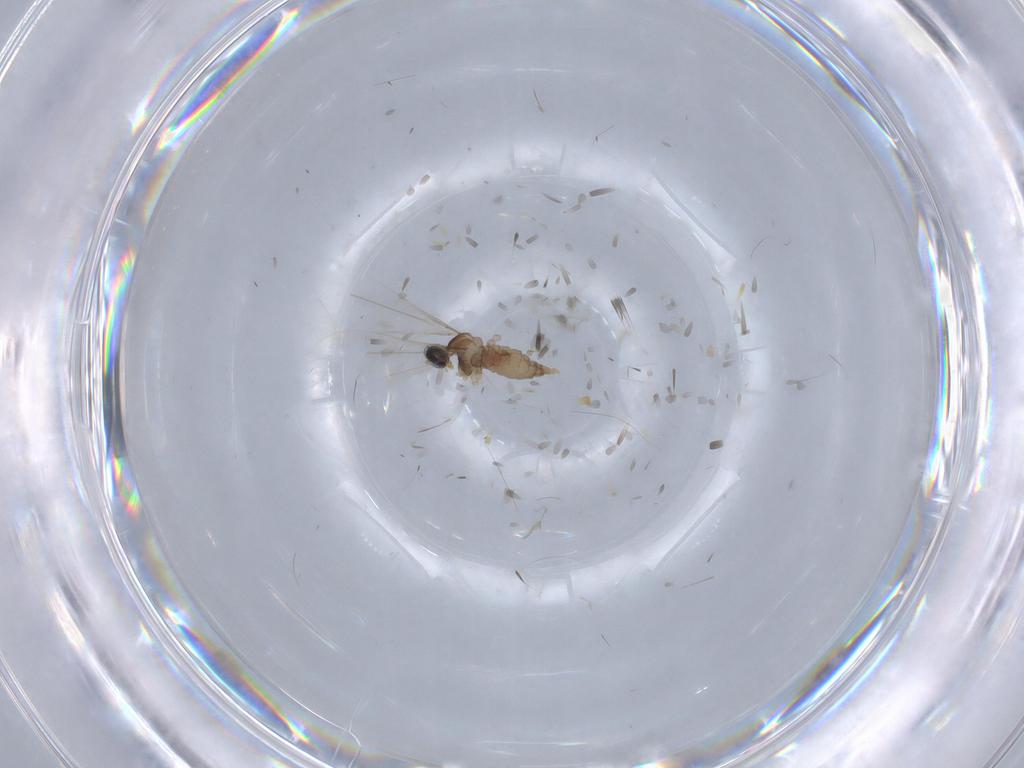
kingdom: Animalia
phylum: Arthropoda
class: Insecta
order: Diptera
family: Cecidomyiidae
